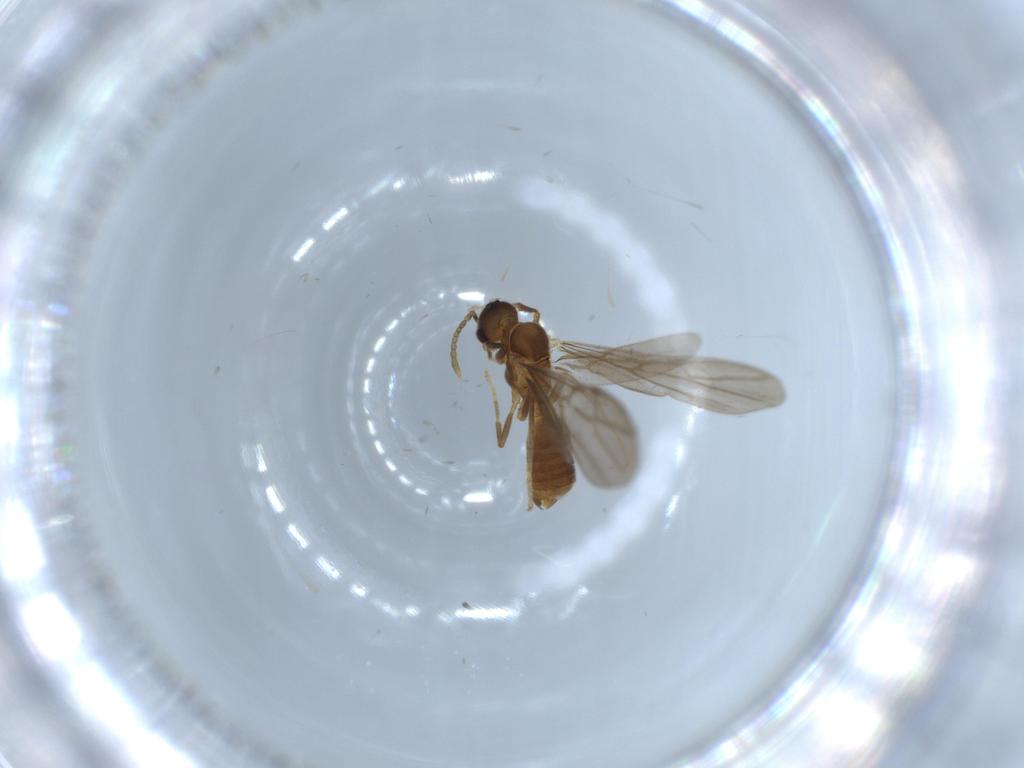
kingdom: Animalia
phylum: Arthropoda
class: Insecta
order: Hymenoptera
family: Formicidae
